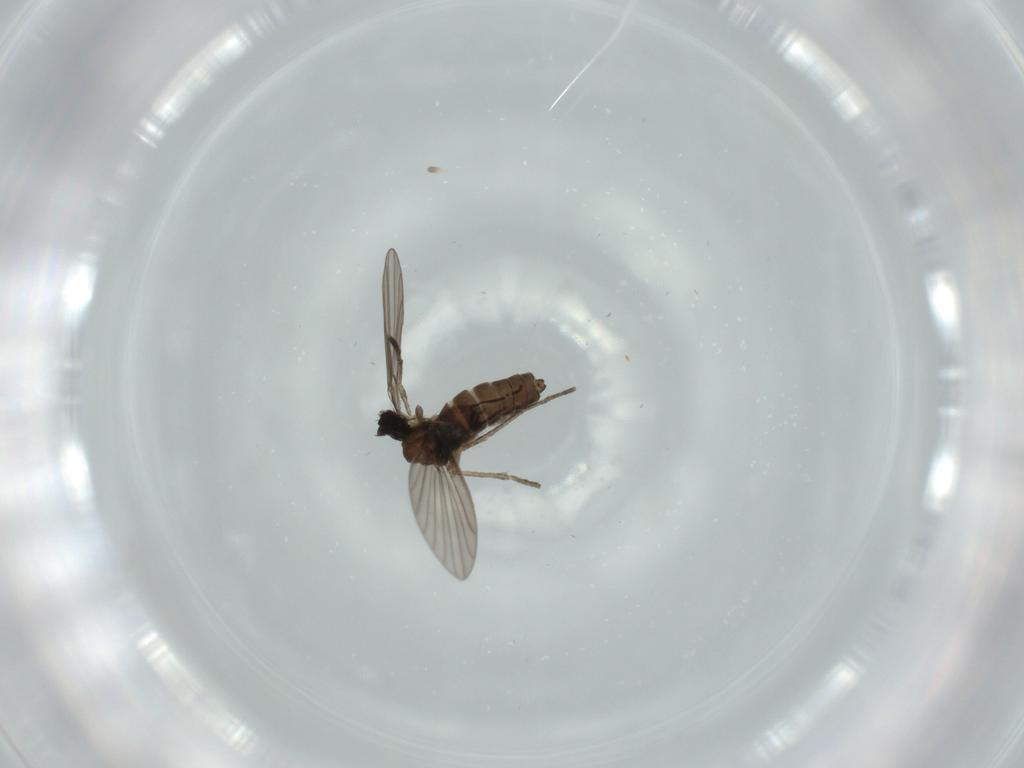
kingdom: Animalia
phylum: Arthropoda
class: Insecta
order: Diptera
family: Psychodidae
